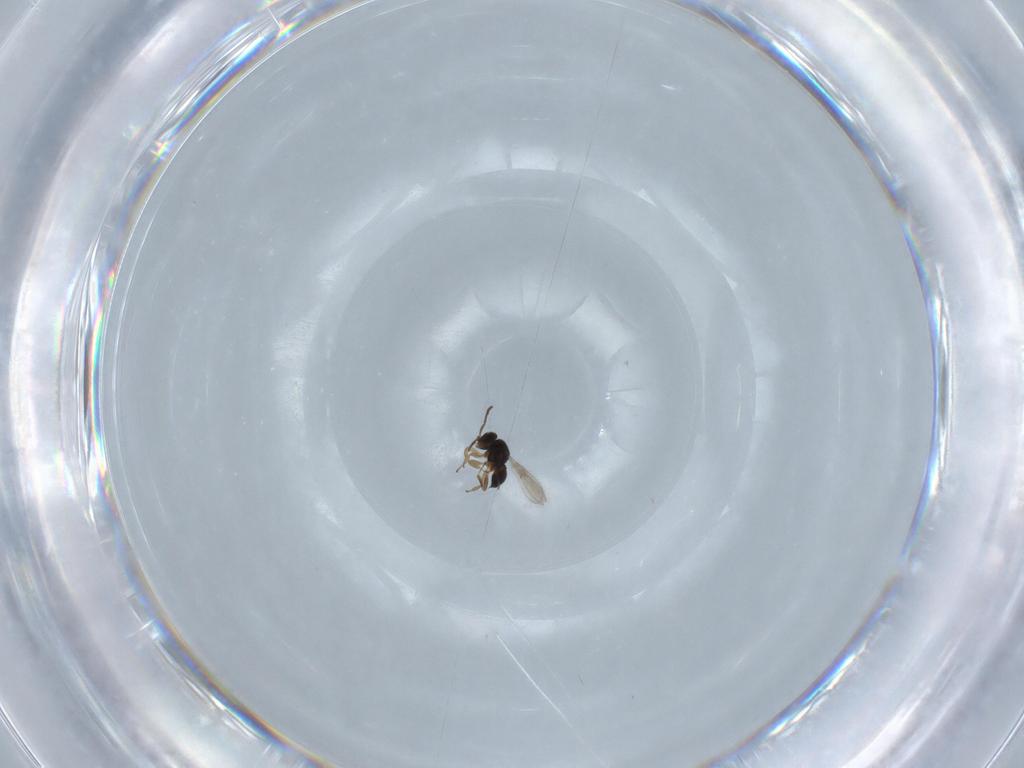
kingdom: Animalia
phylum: Arthropoda
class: Insecta
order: Hymenoptera
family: Scelionidae
